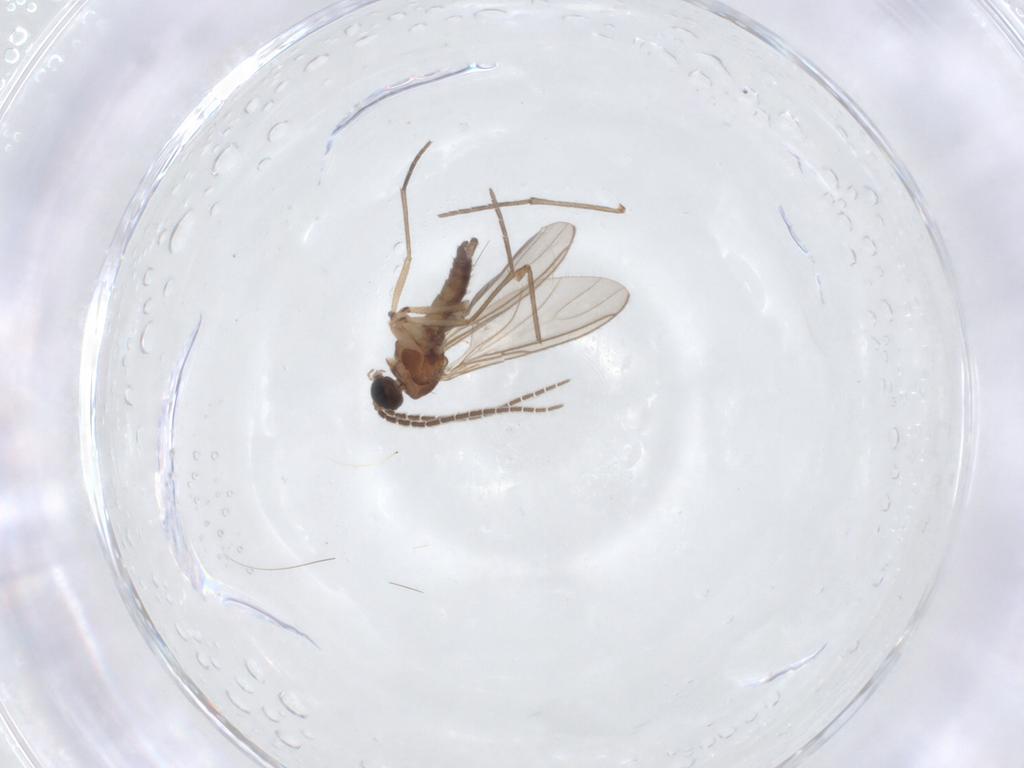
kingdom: Animalia
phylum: Arthropoda
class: Insecta
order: Diptera
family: Sciaridae
